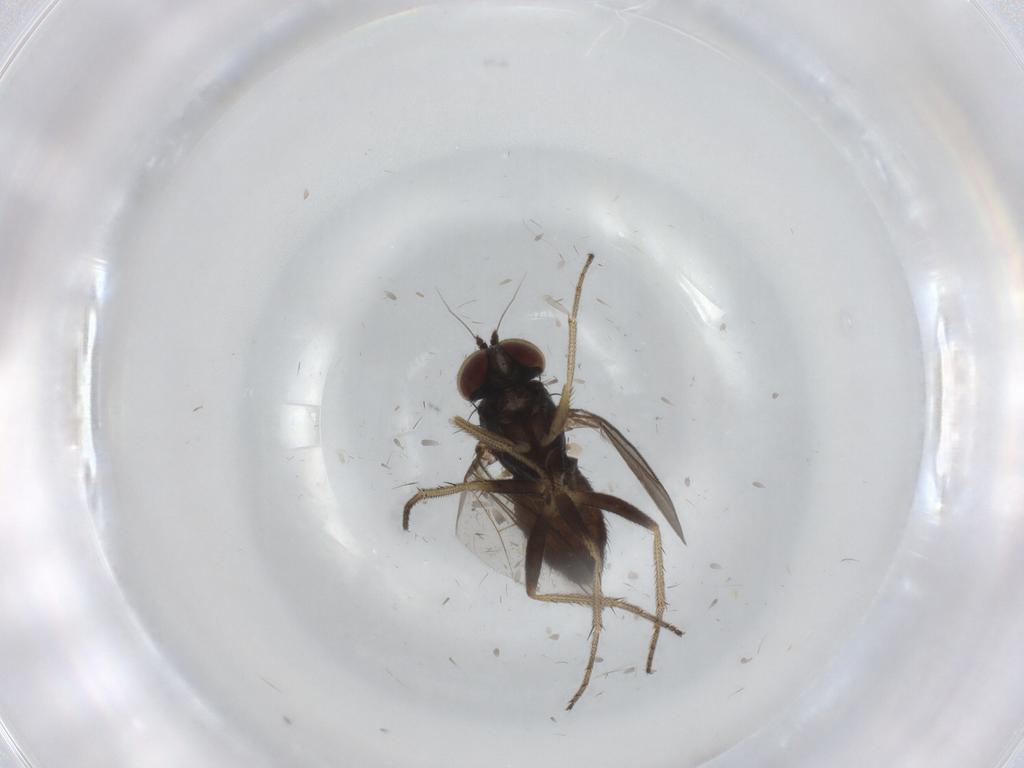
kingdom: Animalia
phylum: Arthropoda
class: Insecta
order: Diptera
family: Dolichopodidae
